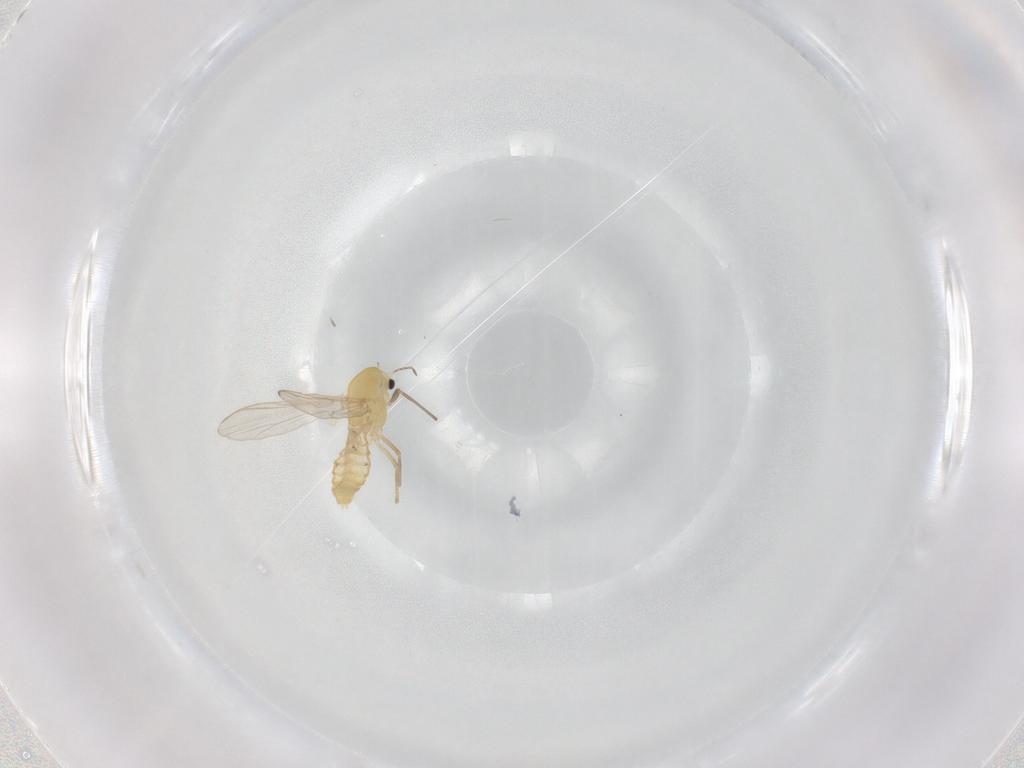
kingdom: Animalia
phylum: Arthropoda
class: Insecta
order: Diptera
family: Chironomidae
